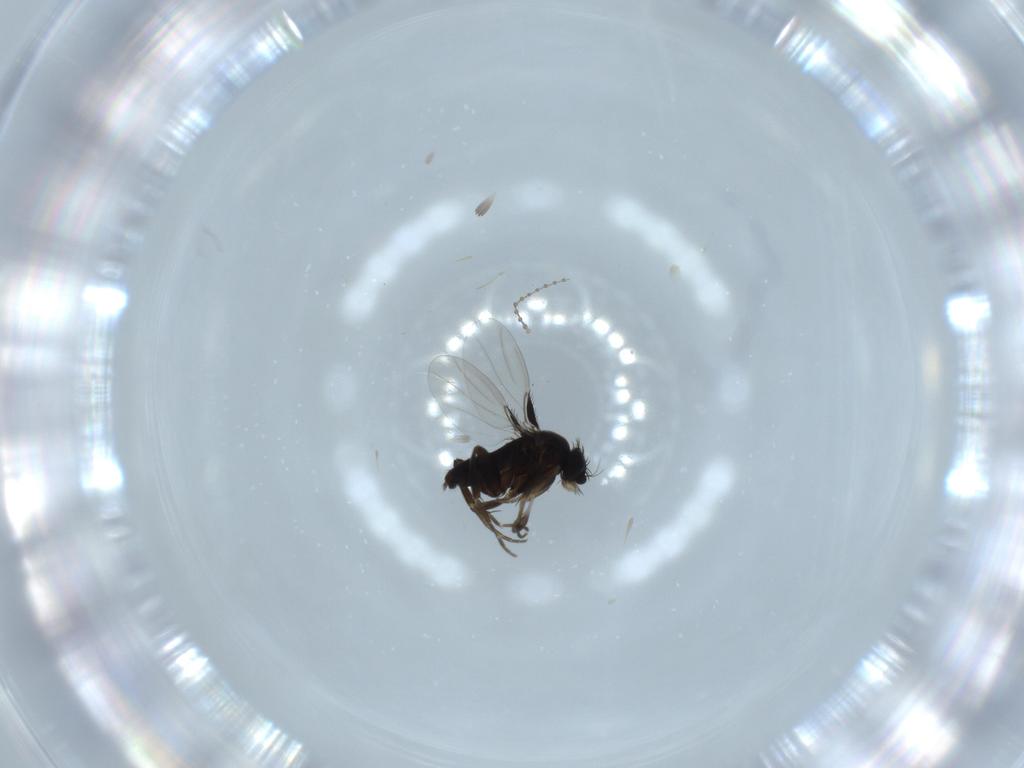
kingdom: Animalia
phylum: Arthropoda
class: Insecta
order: Diptera
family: Cecidomyiidae
